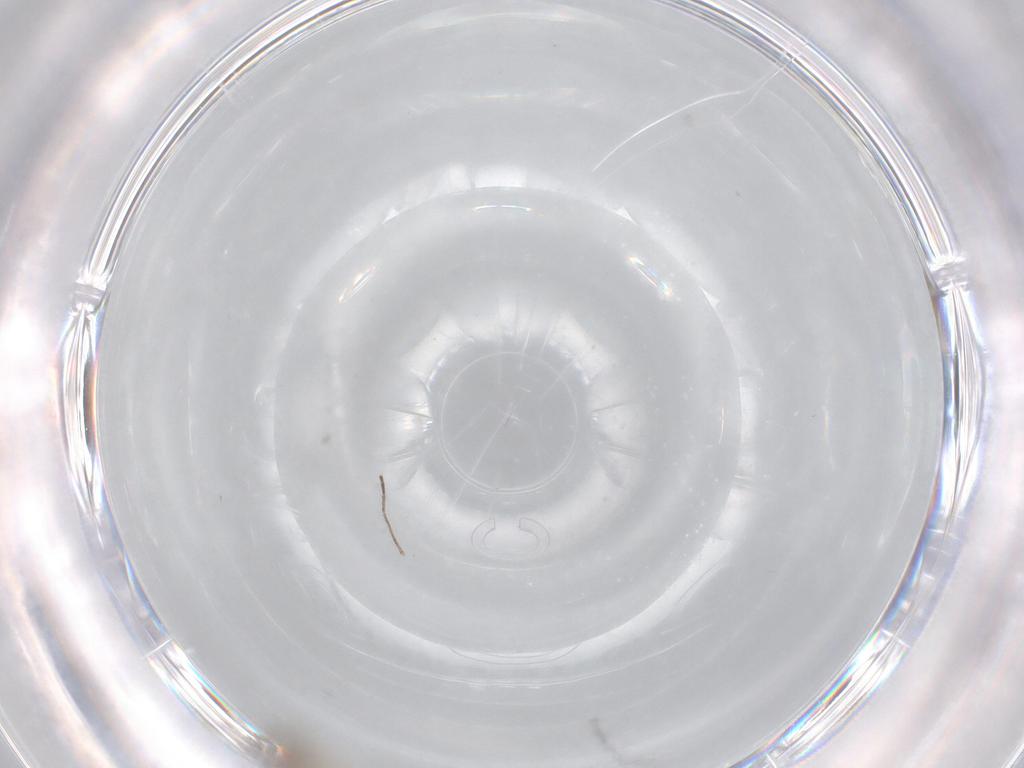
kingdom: Animalia
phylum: Arthropoda
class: Insecta
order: Diptera
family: Cecidomyiidae
